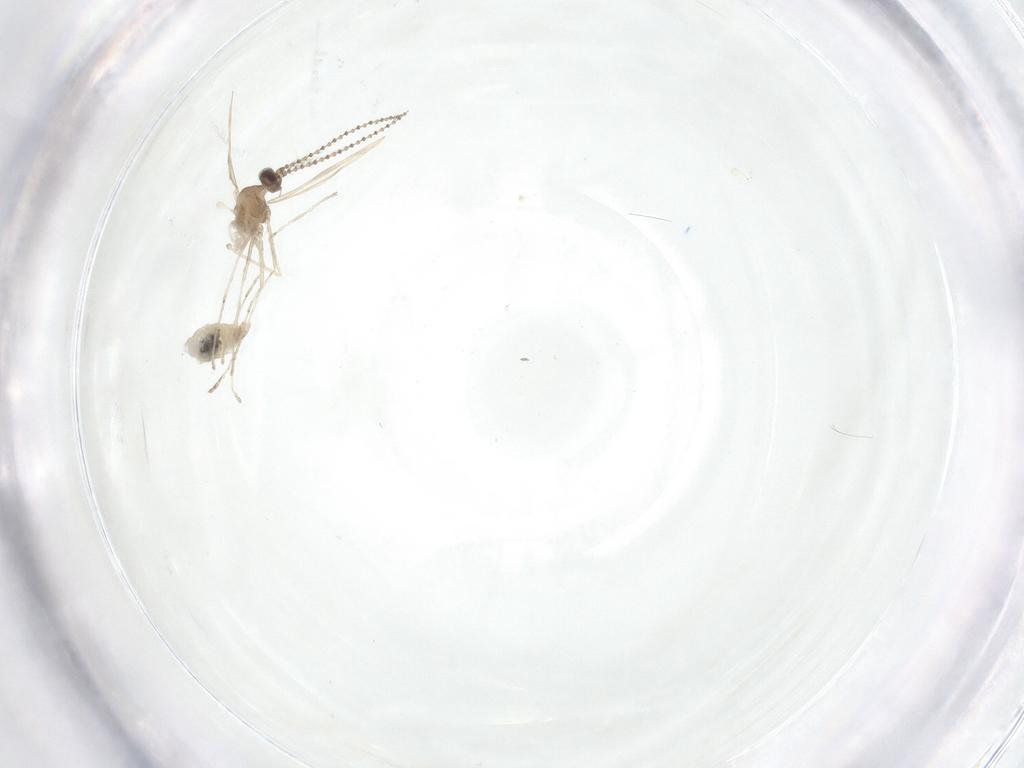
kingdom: Animalia
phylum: Arthropoda
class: Insecta
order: Diptera
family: Cecidomyiidae
